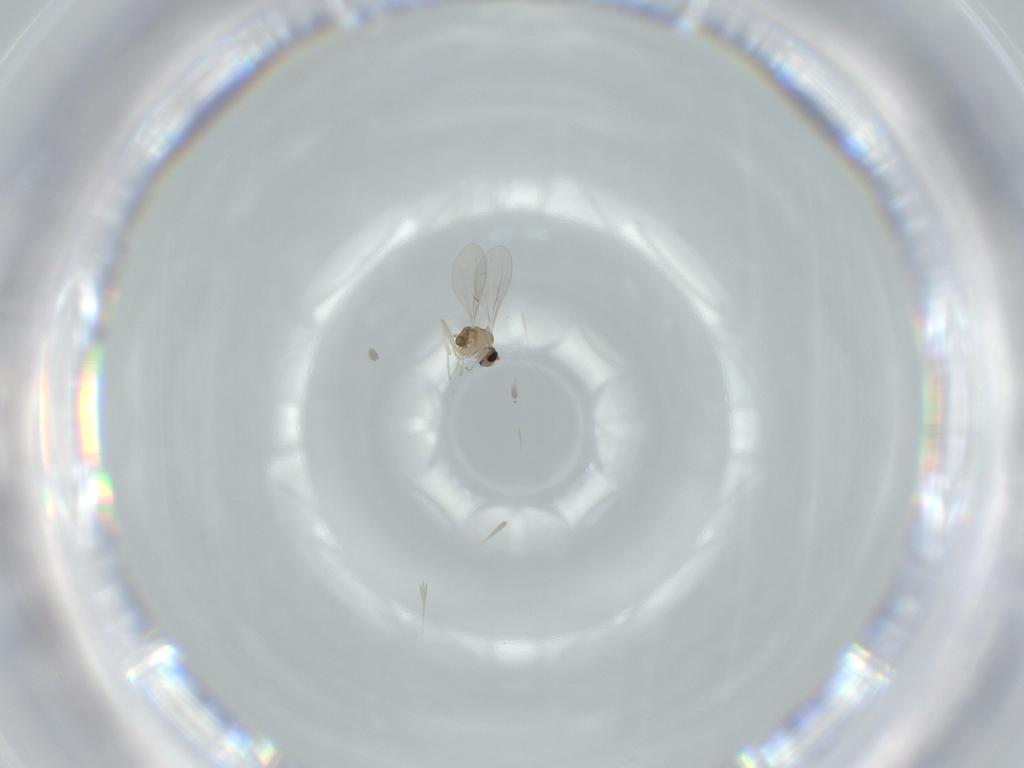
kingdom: Animalia
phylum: Arthropoda
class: Insecta
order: Diptera
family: Cecidomyiidae
